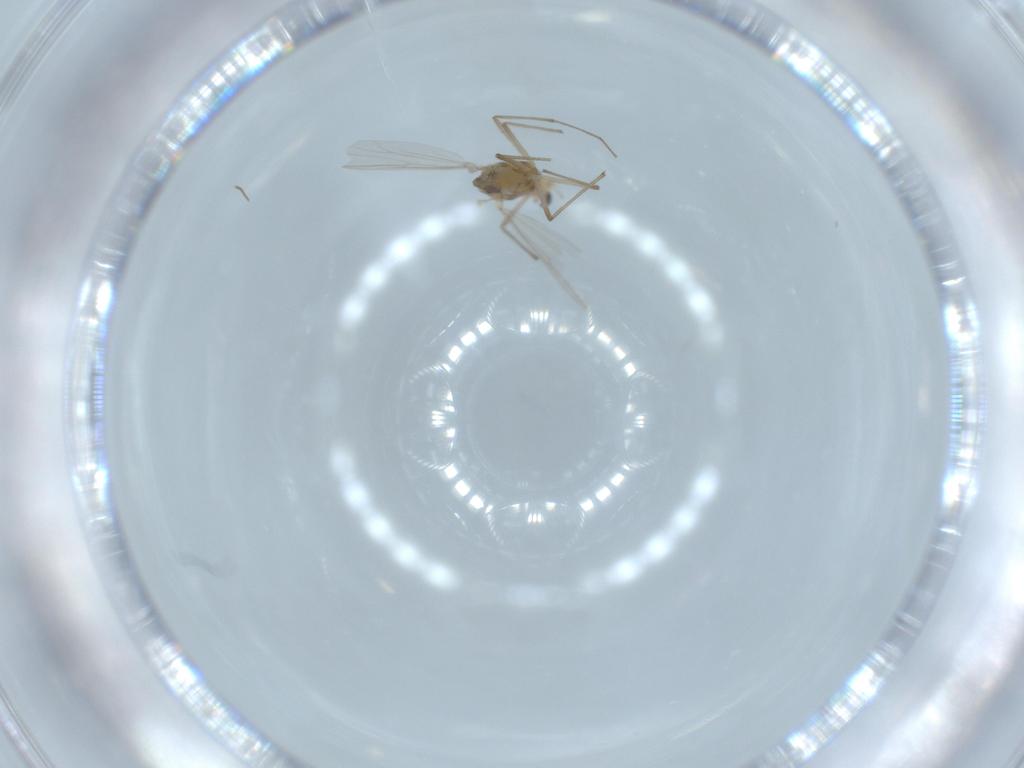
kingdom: Animalia
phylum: Arthropoda
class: Insecta
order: Diptera
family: Chironomidae
